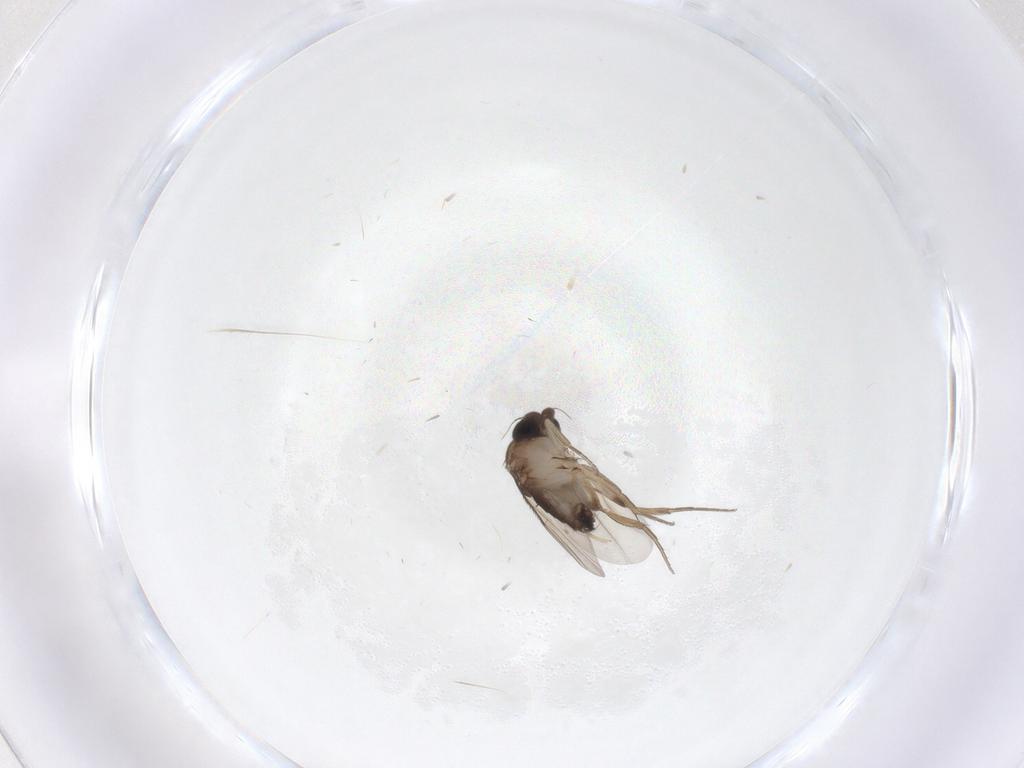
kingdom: Animalia
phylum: Arthropoda
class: Insecta
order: Diptera
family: Phoridae
